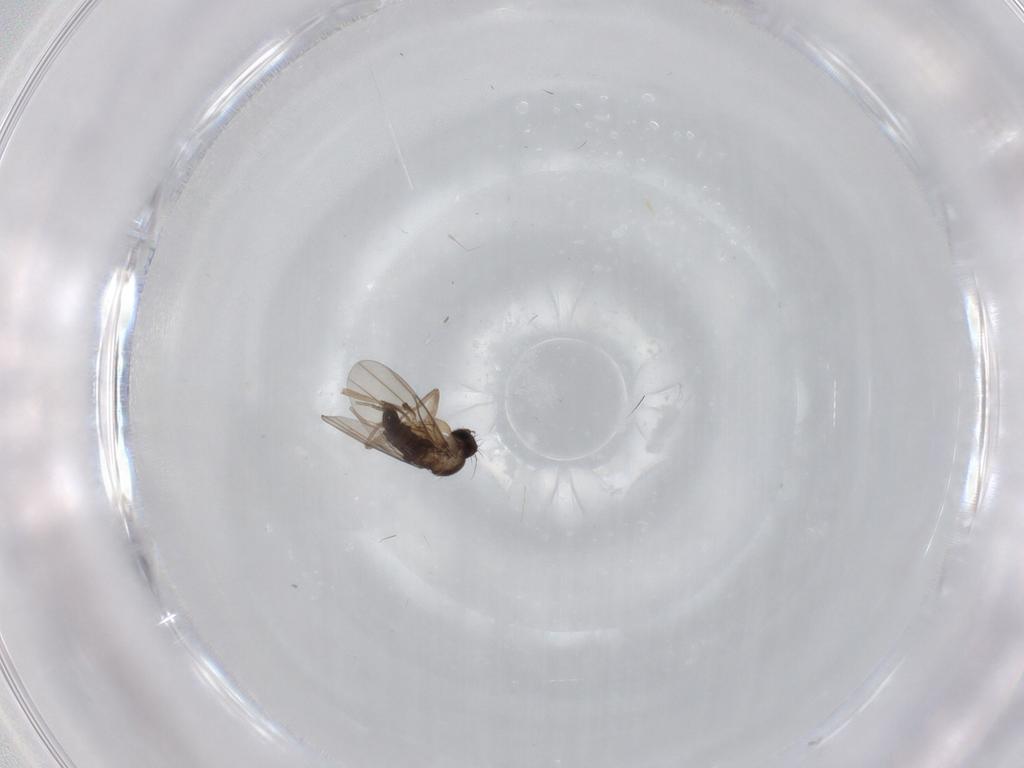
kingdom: Animalia
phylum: Arthropoda
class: Insecta
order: Diptera
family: Phoridae
